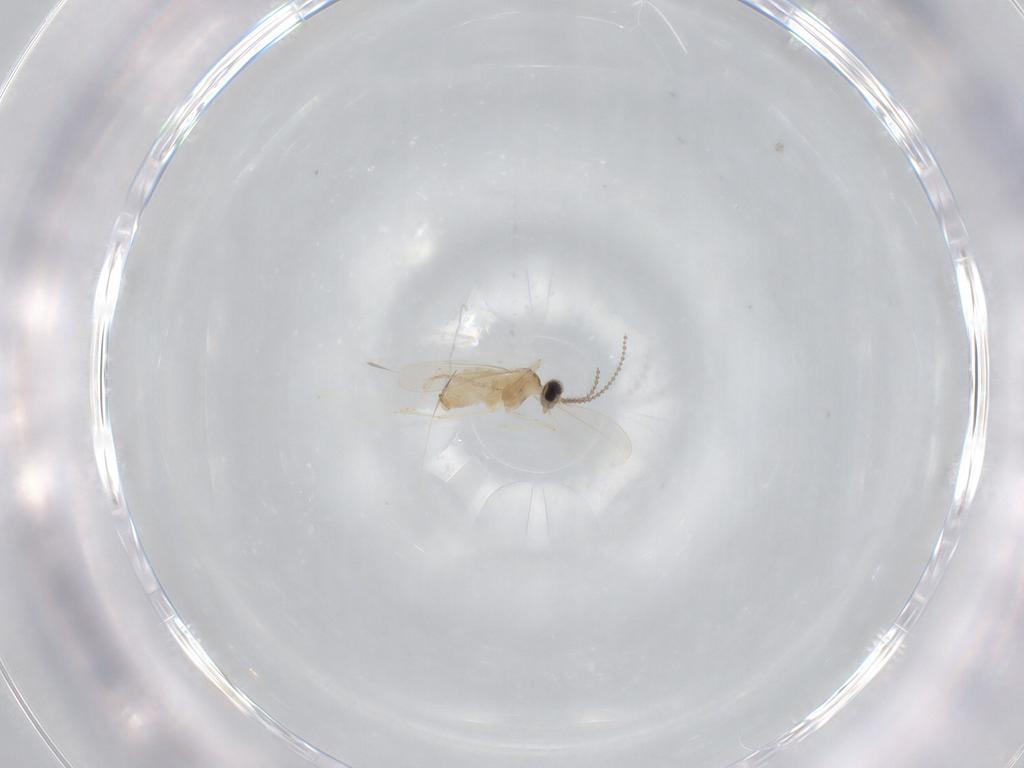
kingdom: Animalia
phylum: Arthropoda
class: Insecta
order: Diptera
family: Cecidomyiidae
